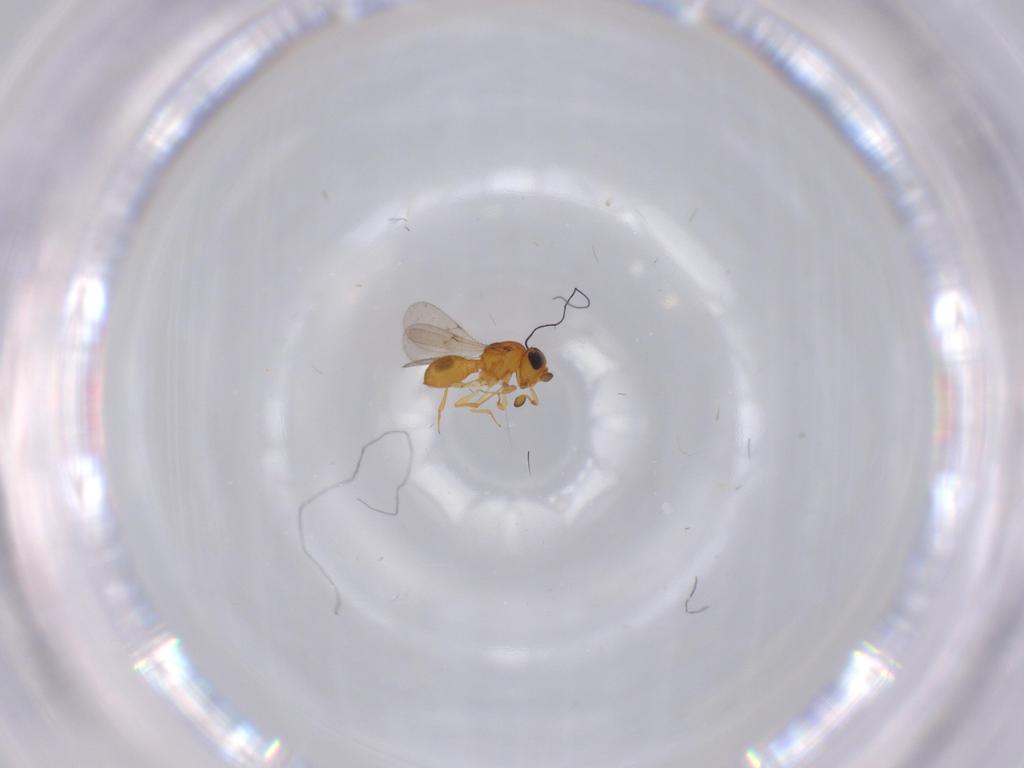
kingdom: Animalia
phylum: Arthropoda
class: Insecta
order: Hymenoptera
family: Scelionidae
